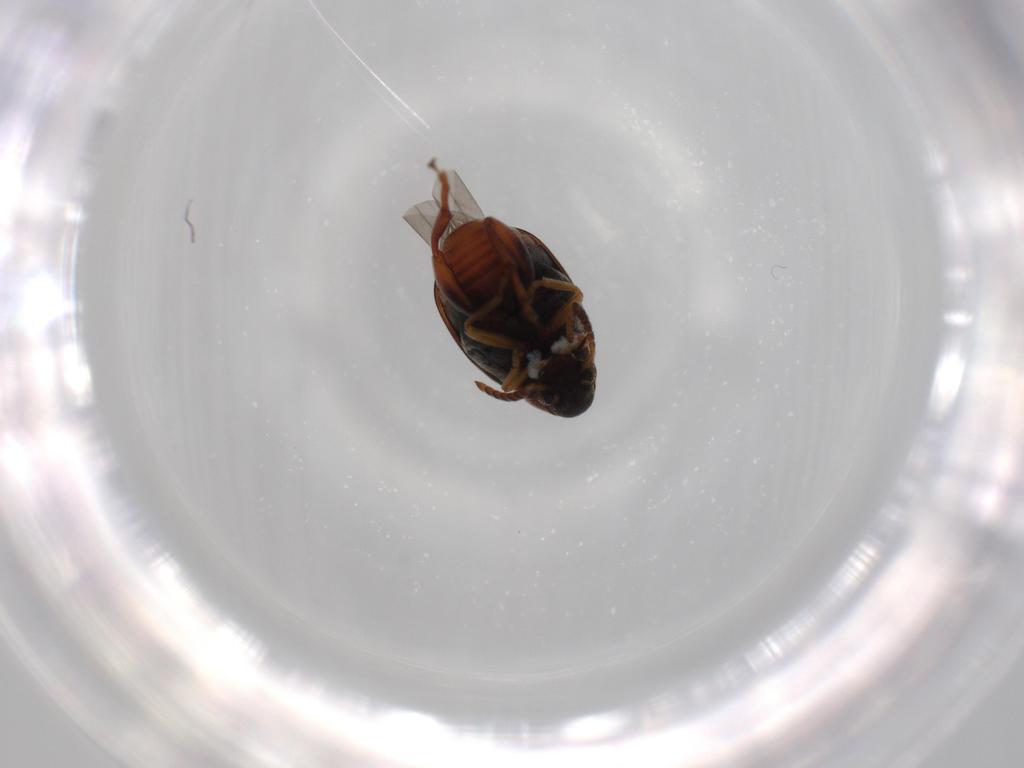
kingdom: Animalia
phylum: Arthropoda
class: Insecta
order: Coleoptera
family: Chrysomelidae
